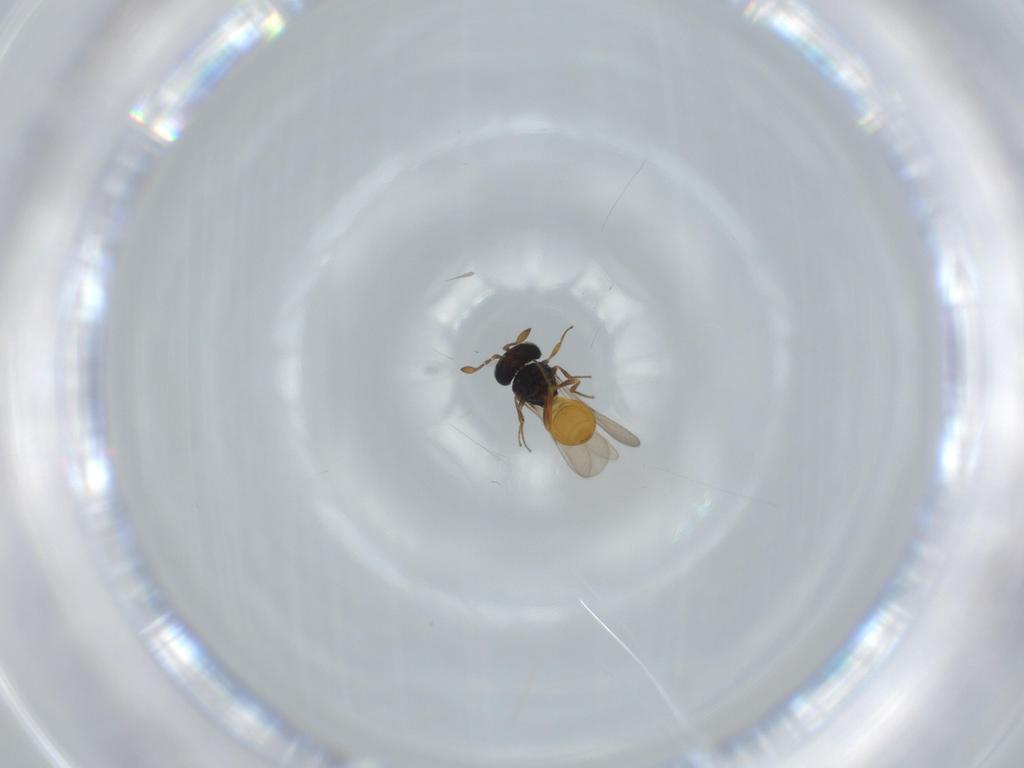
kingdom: Animalia
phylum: Arthropoda
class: Insecta
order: Hymenoptera
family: Scelionidae
